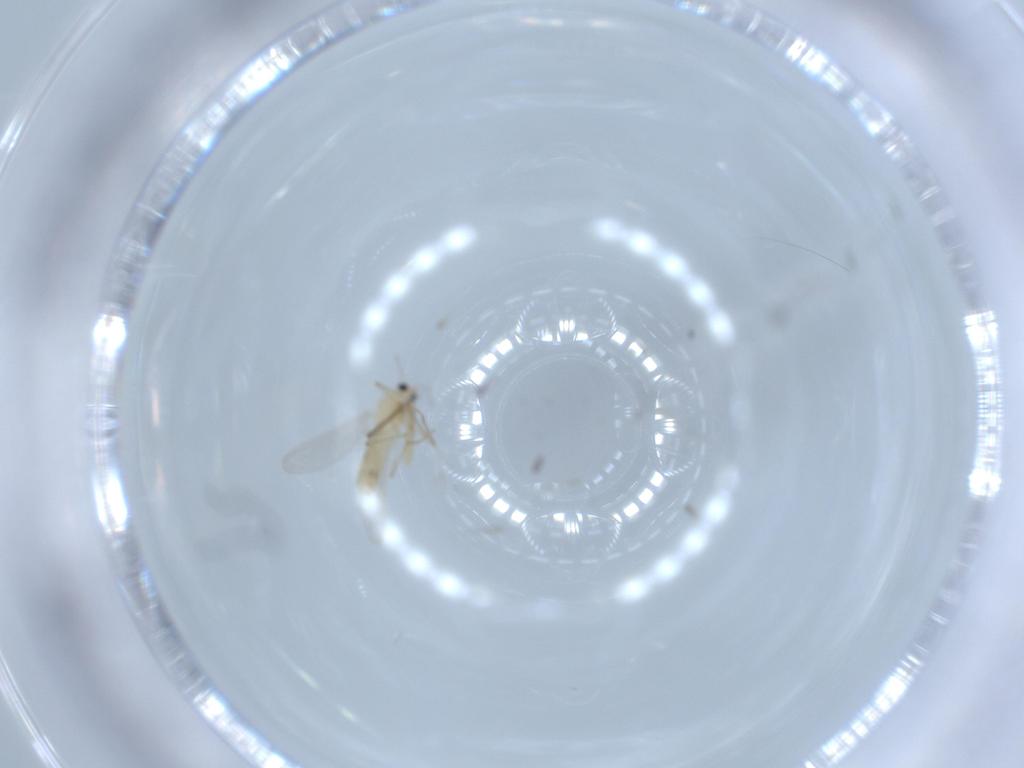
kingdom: Animalia
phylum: Arthropoda
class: Insecta
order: Diptera
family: Chironomidae
